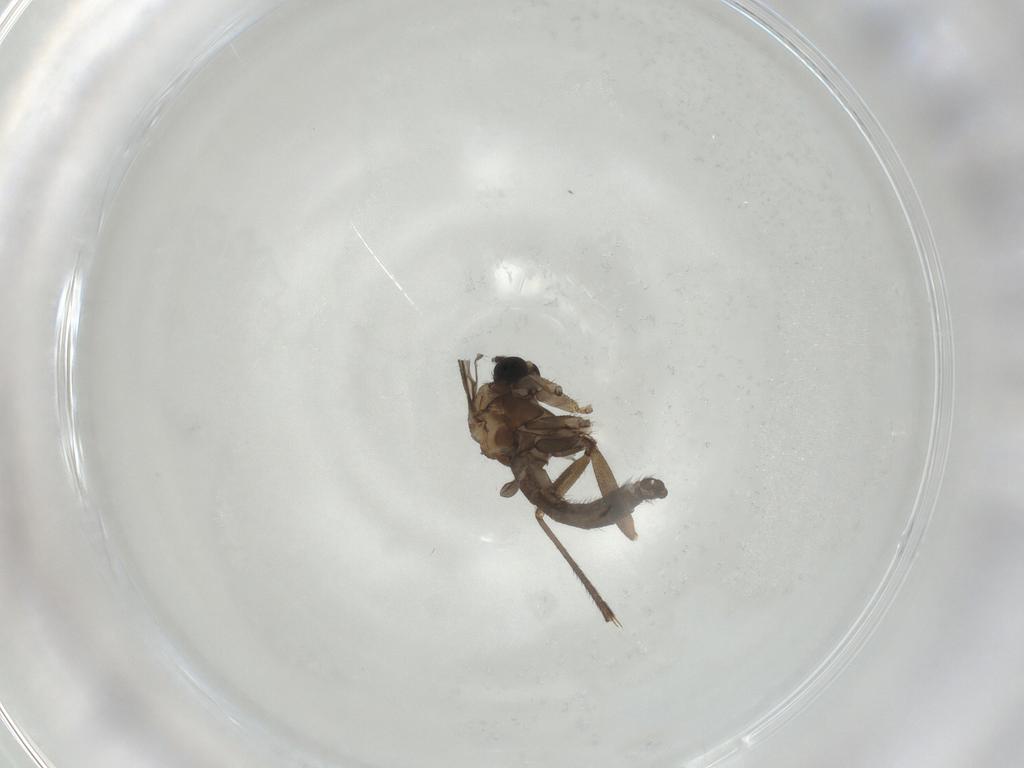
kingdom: Animalia
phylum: Arthropoda
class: Insecta
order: Diptera
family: Sciaridae
